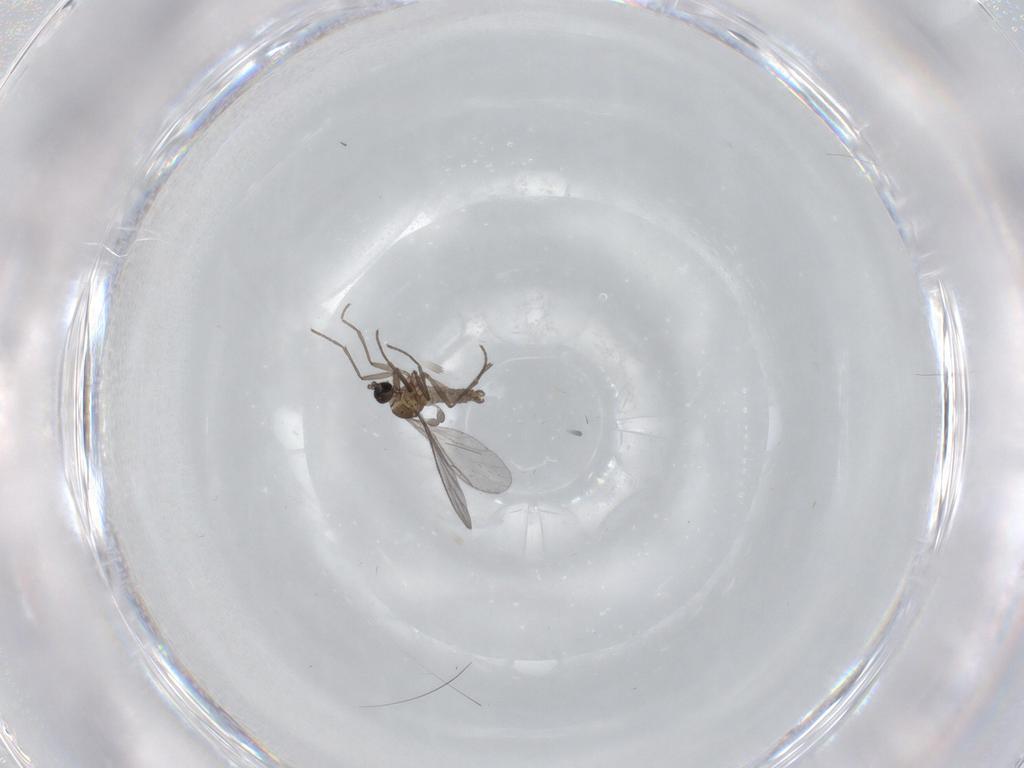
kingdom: Animalia
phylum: Arthropoda
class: Insecta
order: Diptera
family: Sciaridae
